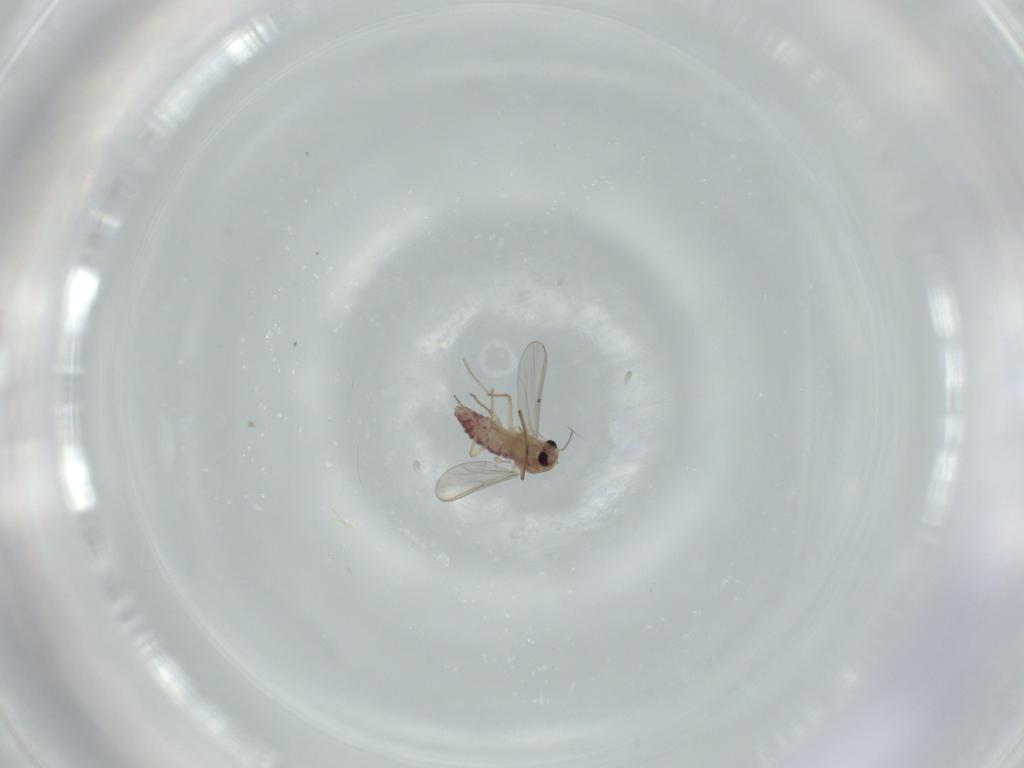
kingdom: Animalia
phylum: Arthropoda
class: Insecta
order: Diptera
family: Chironomidae
